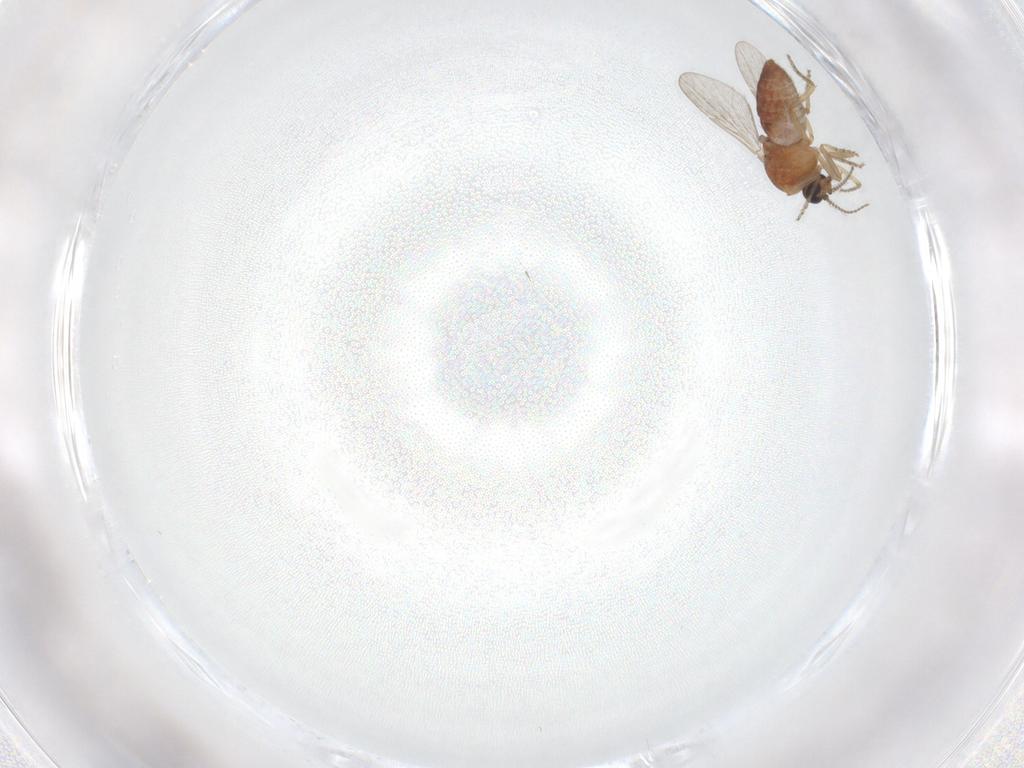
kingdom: Animalia
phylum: Arthropoda
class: Insecta
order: Diptera
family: Ceratopogonidae
